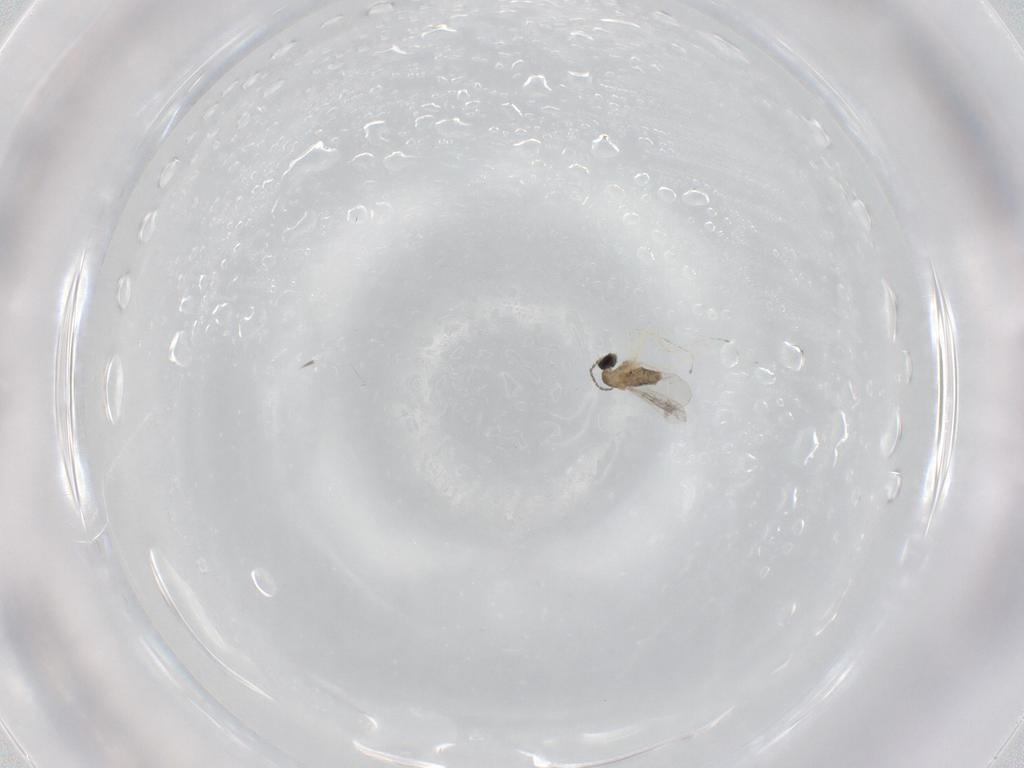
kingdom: Animalia
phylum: Arthropoda
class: Insecta
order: Diptera
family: Cecidomyiidae
